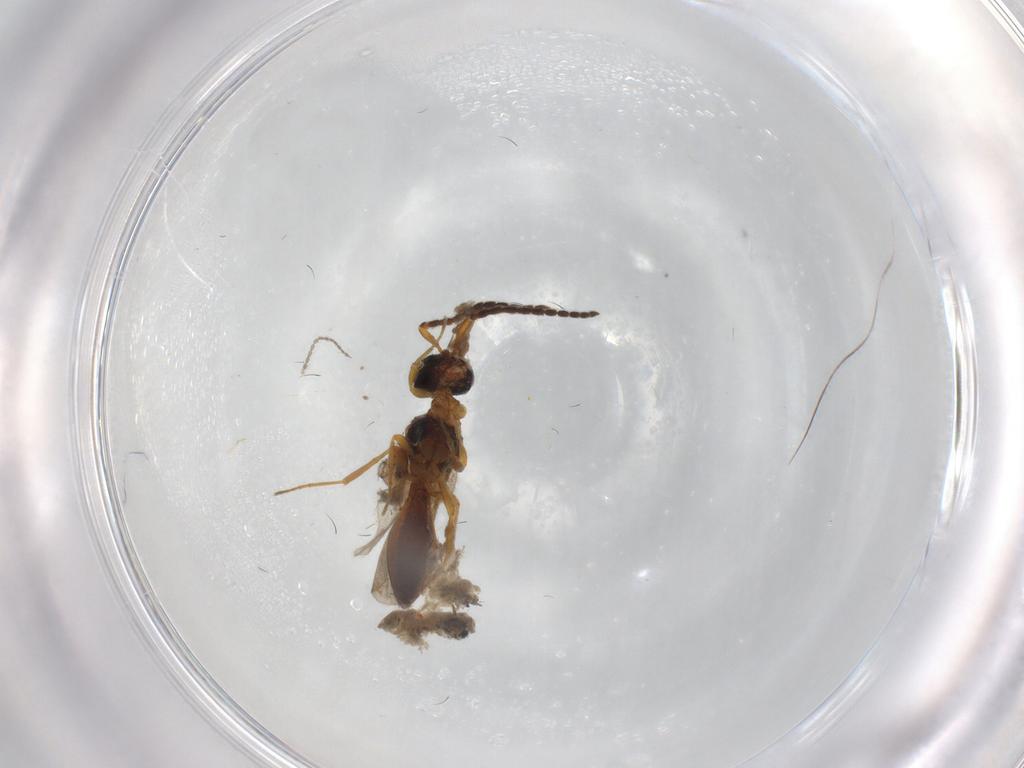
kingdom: Animalia
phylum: Arthropoda
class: Insecta
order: Hymenoptera
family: Scelionidae
